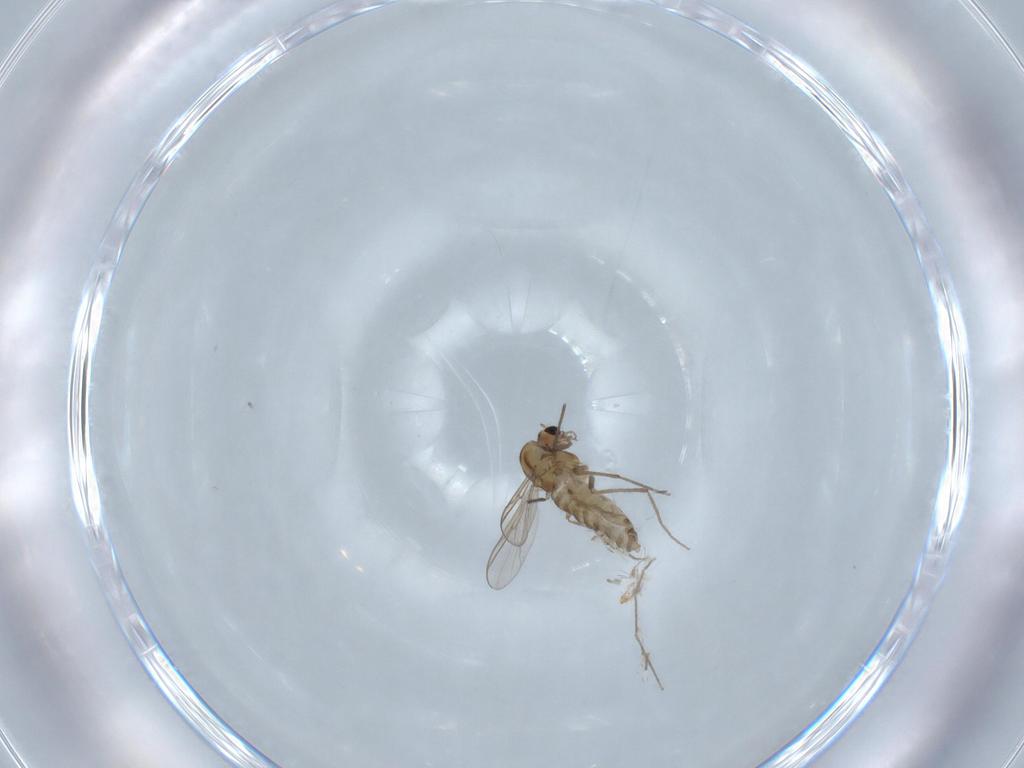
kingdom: Animalia
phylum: Arthropoda
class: Insecta
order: Diptera
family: Chironomidae
